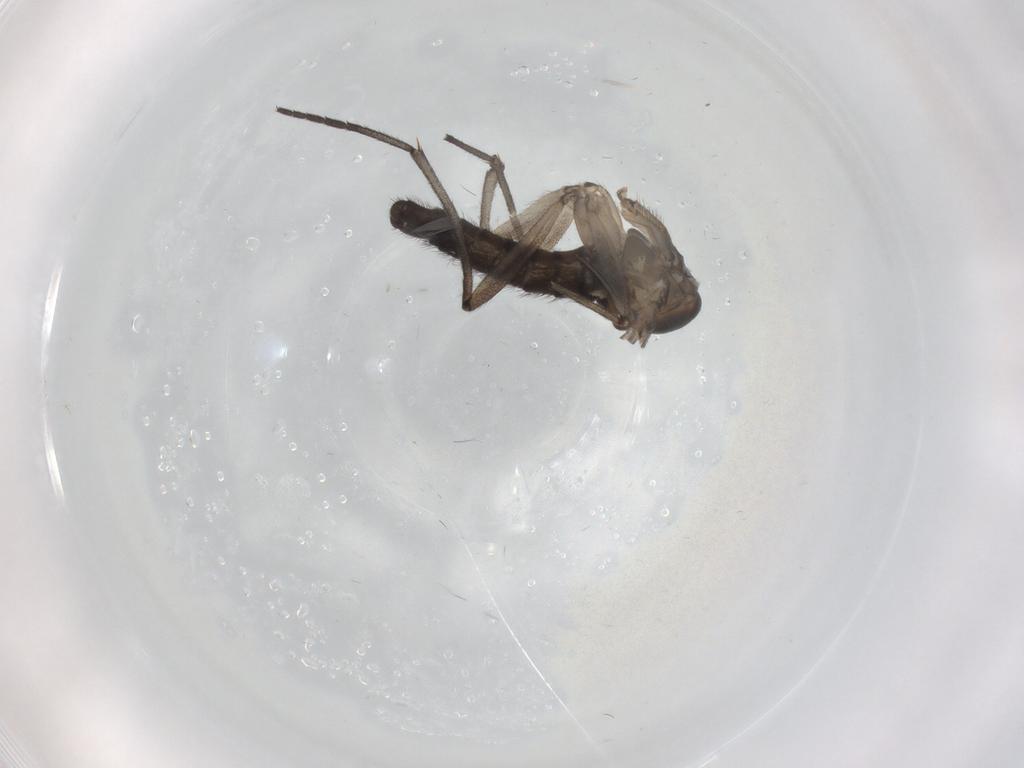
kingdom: Animalia
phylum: Arthropoda
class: Insecta
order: Diptera
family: Sciaridae
